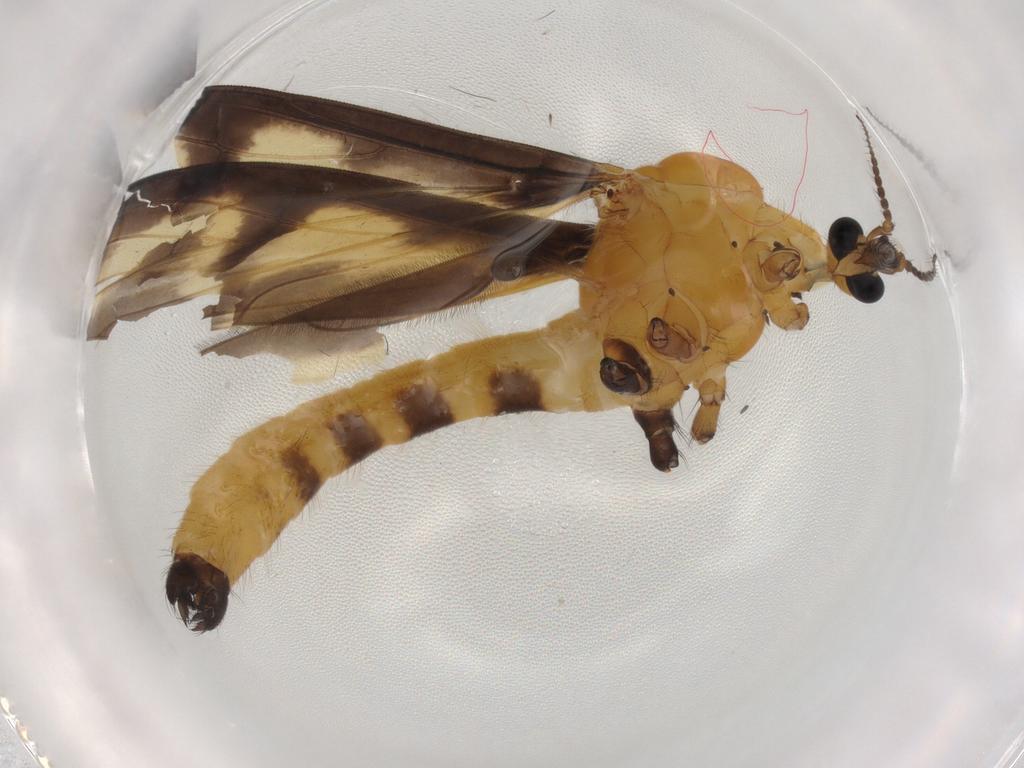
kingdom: Animalia
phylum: Arthropoda
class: Insecta
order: Diptera
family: Limoniidae
